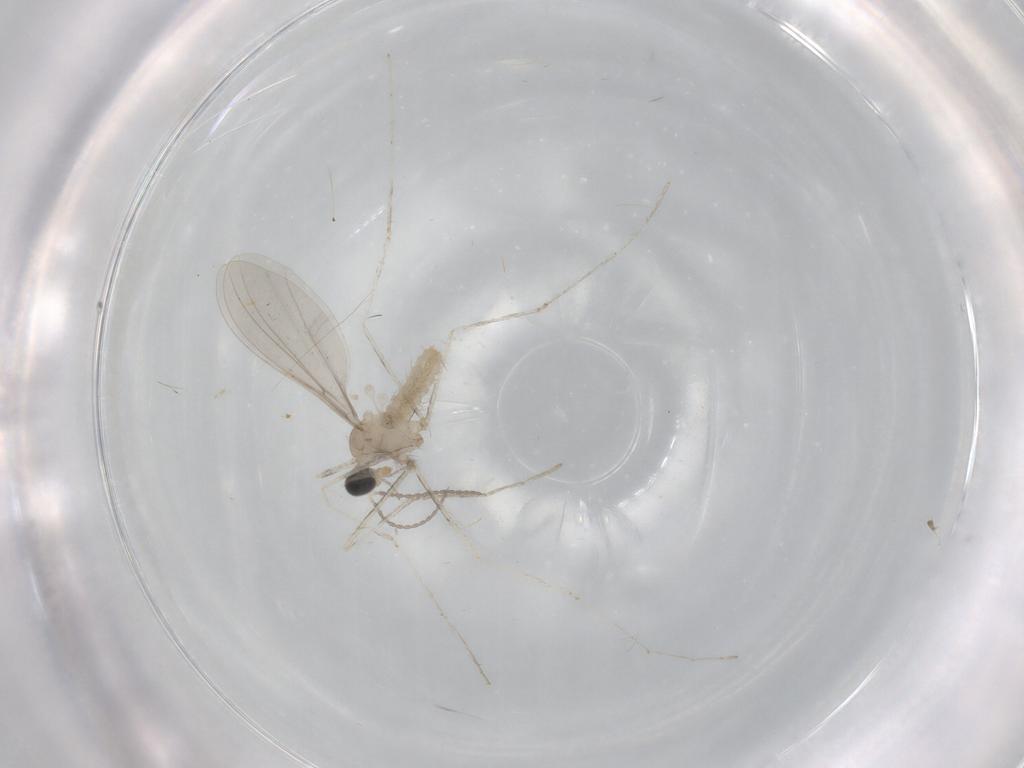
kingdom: Animalia
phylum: Arthropoda
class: Insecta
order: Diptera
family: Cecidomyiidae
